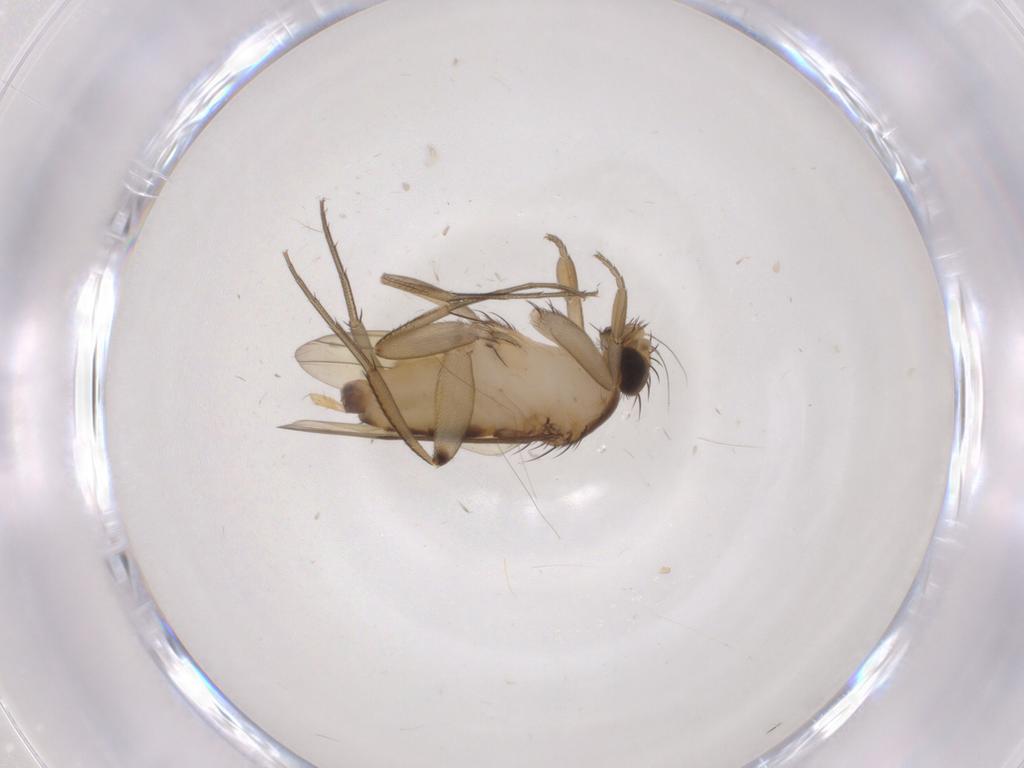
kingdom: Animalia
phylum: Arthropoda
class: Insecta
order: Diptera
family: Phoridae
